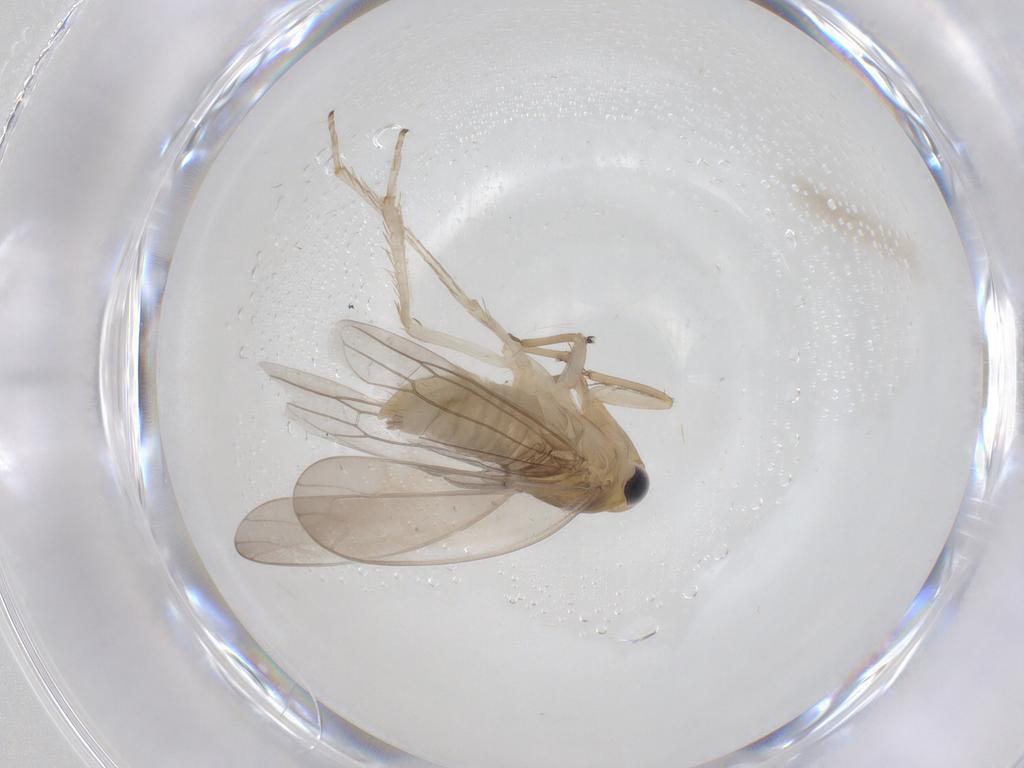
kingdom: Animalia
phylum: Arthropoda
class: Insecta
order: Hemiptera
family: Cicadellidae
